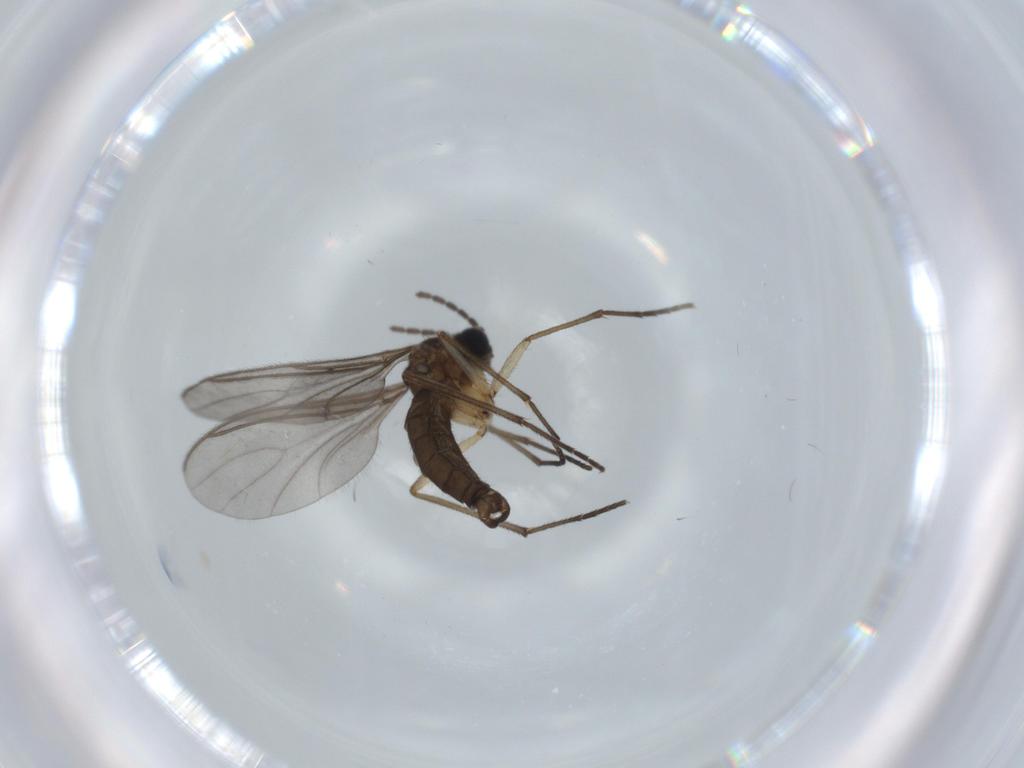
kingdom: Animalia
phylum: Arthropoda
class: Insecta
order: Diptera
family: Sciaridae
